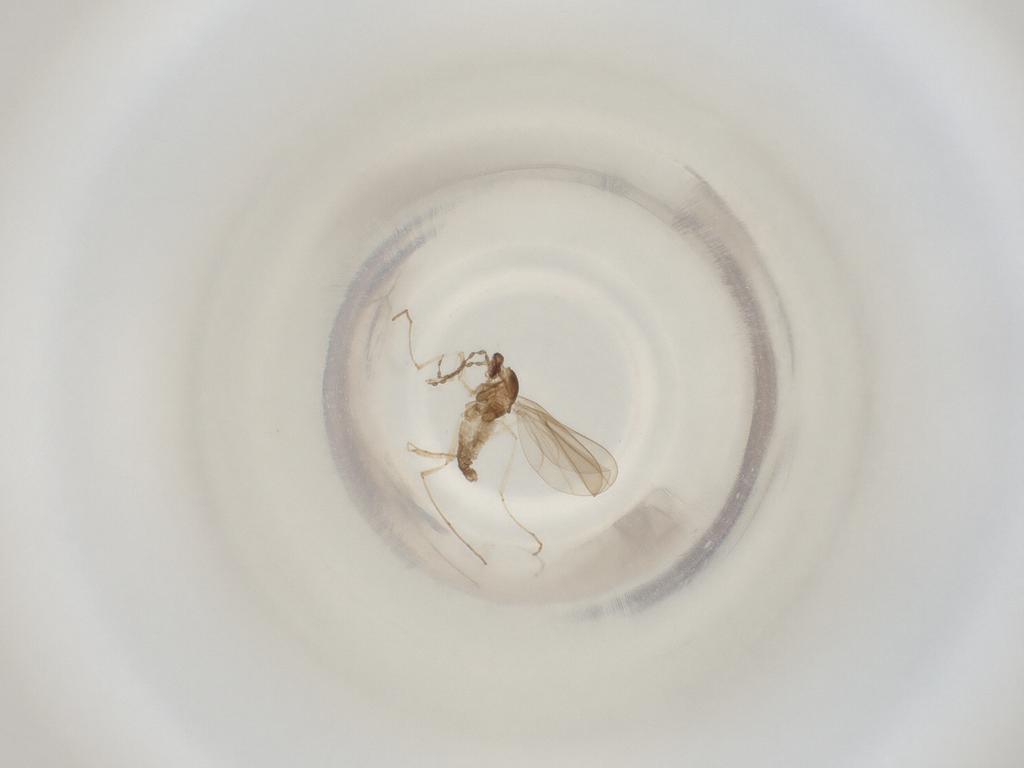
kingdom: Animalia
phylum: Arthropoda
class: Insecta
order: Diptera
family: Cecidomyiidae
